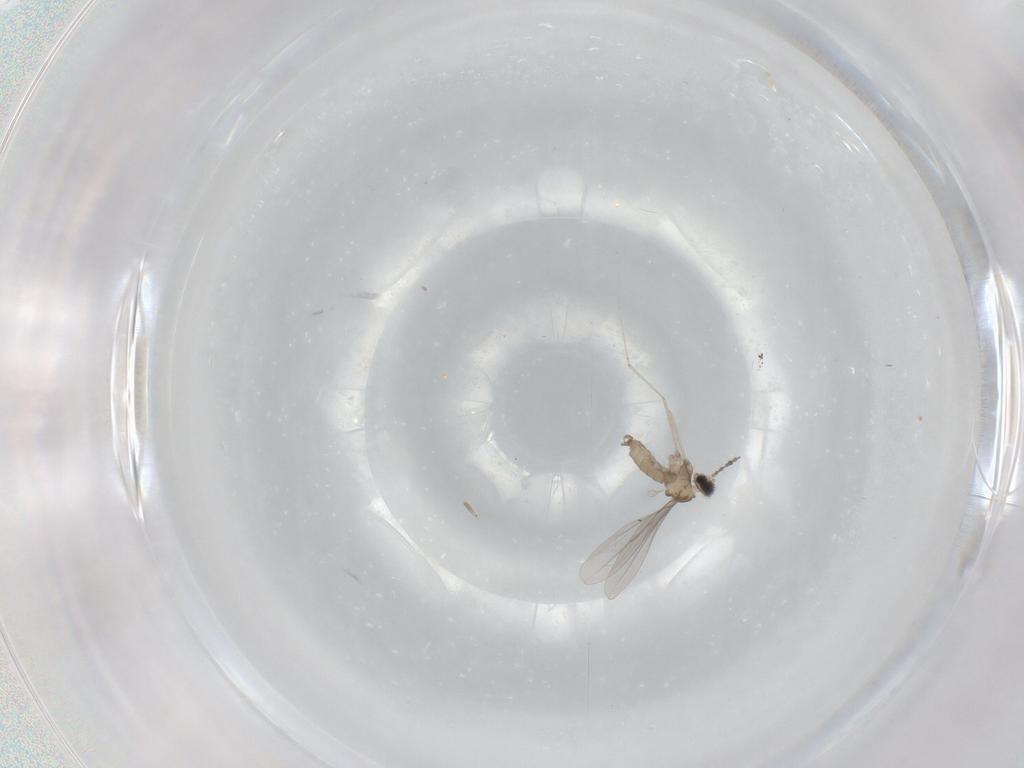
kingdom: Animalia
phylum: Arthropoda
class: Insecta
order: Diptera
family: Cecidomyiidae
